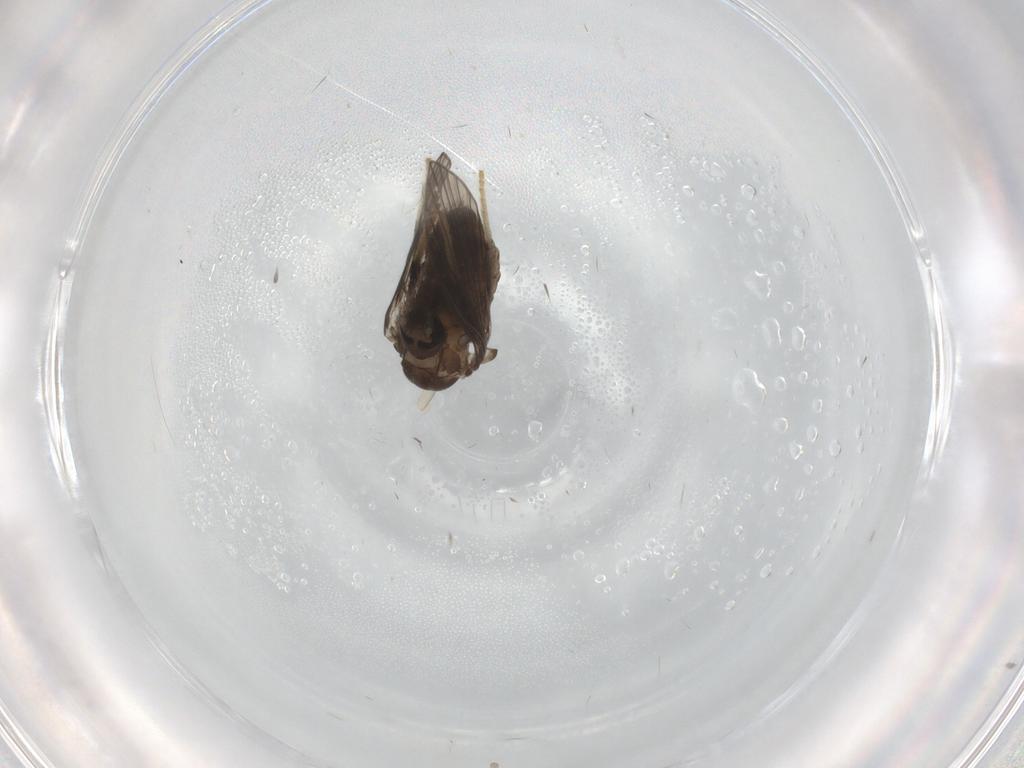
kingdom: Animalia
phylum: Arthropoda
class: Insecta
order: Diptera
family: Psychodidae
